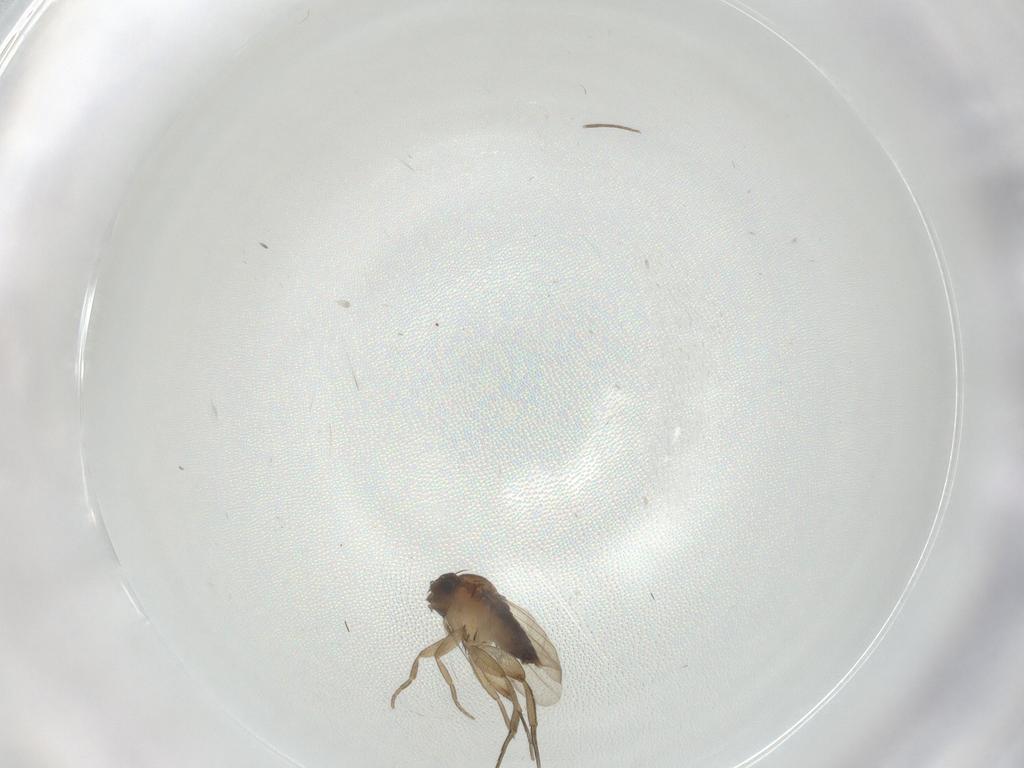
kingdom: Animalia
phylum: Arthropoda
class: Insecta
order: Diptera
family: Phoridae
